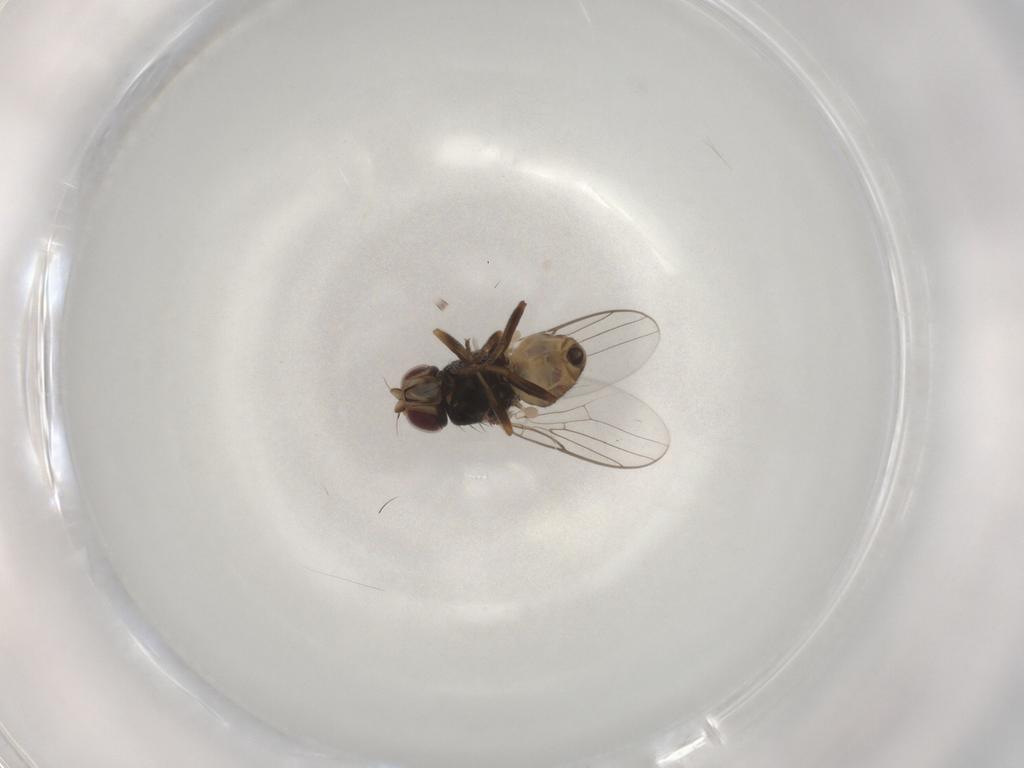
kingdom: Animalia
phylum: Arthropoda
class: Insecta
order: Diptera
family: Chloropidae
